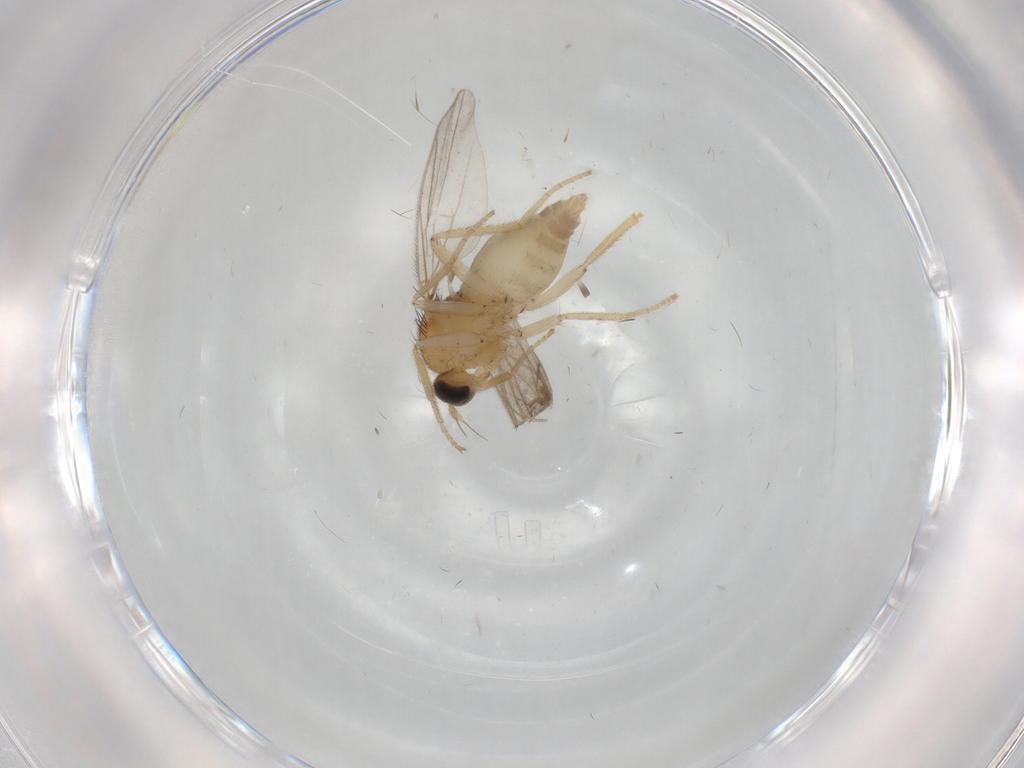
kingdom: Animalia
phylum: Arthropoda
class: Insecta
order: Diptera
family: Hybotidae
